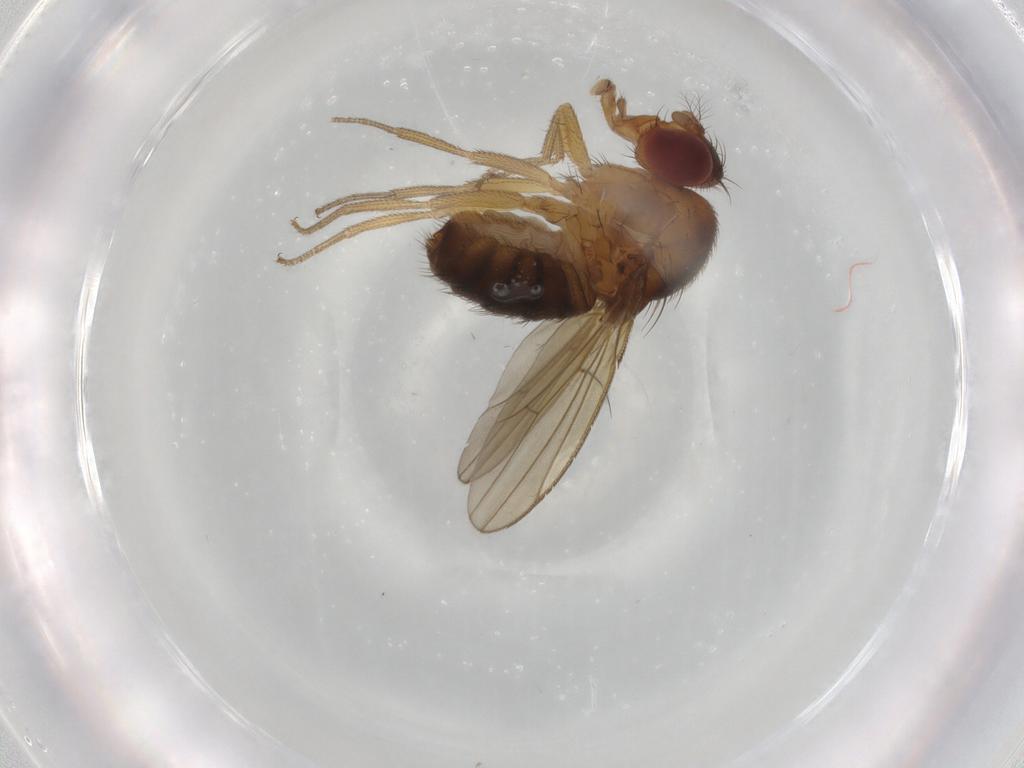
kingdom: Animalia
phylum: Arthropoda
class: Insecta
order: Diptera
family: Drosophilidae
